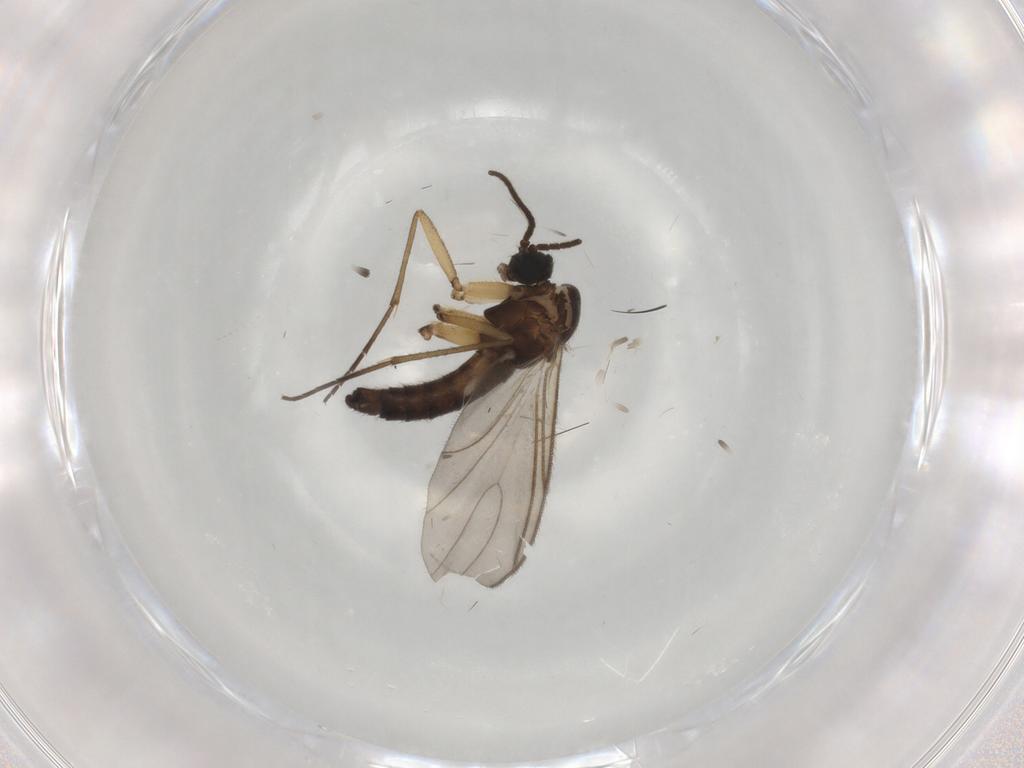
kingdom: Animalia
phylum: Arthropoda
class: Insecta
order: Diptera
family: Sciaridae
